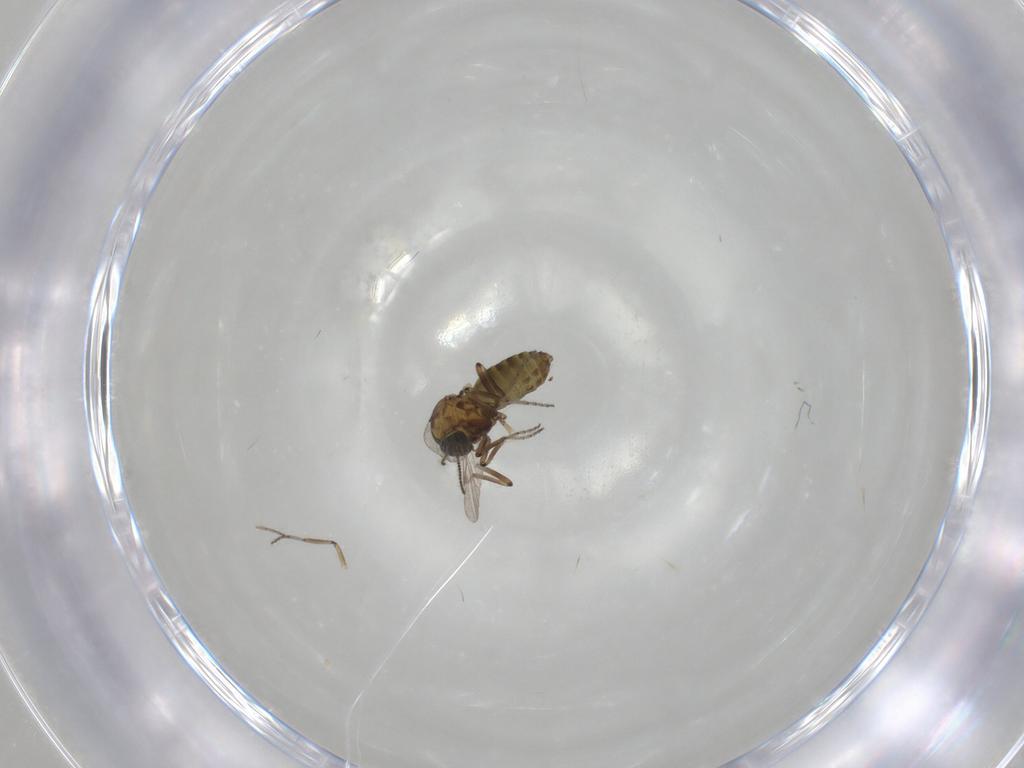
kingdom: Animalia
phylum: Arthropoda
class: Insecta
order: Diptera
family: Ceratopogonidae
